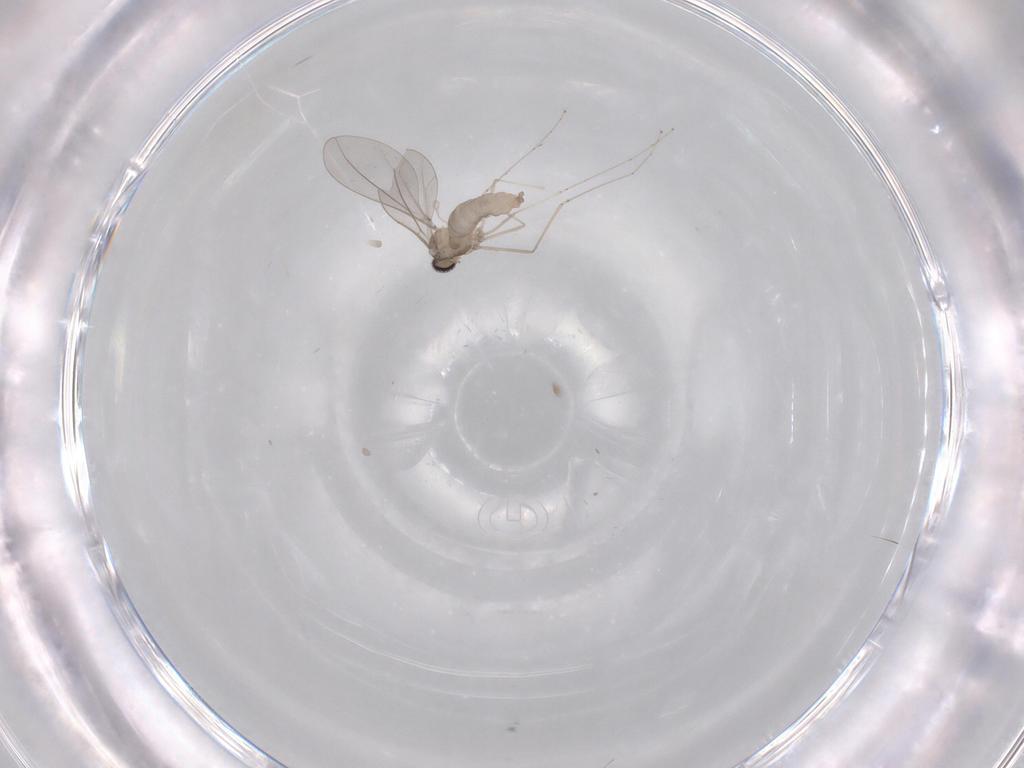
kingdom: Animalia
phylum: Arthropoda
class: Insecta
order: Diptera
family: Cecidomyiidae
